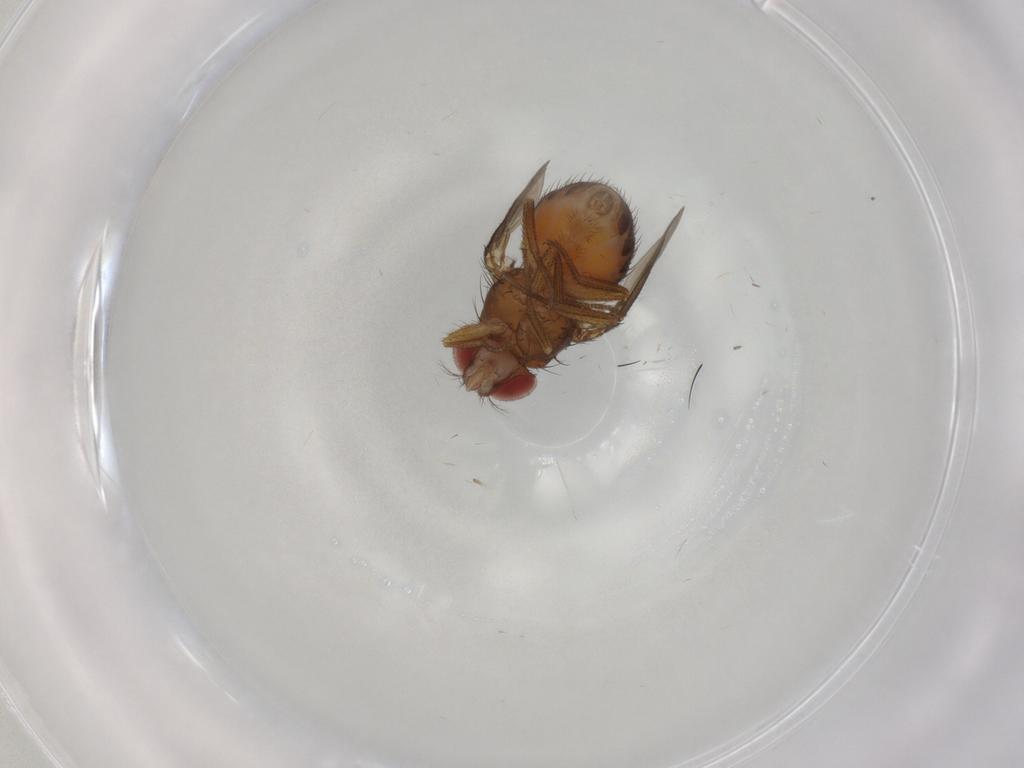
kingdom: Animalia
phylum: Arthropoda
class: Insecta
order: Diptera
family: Drosophilidae
